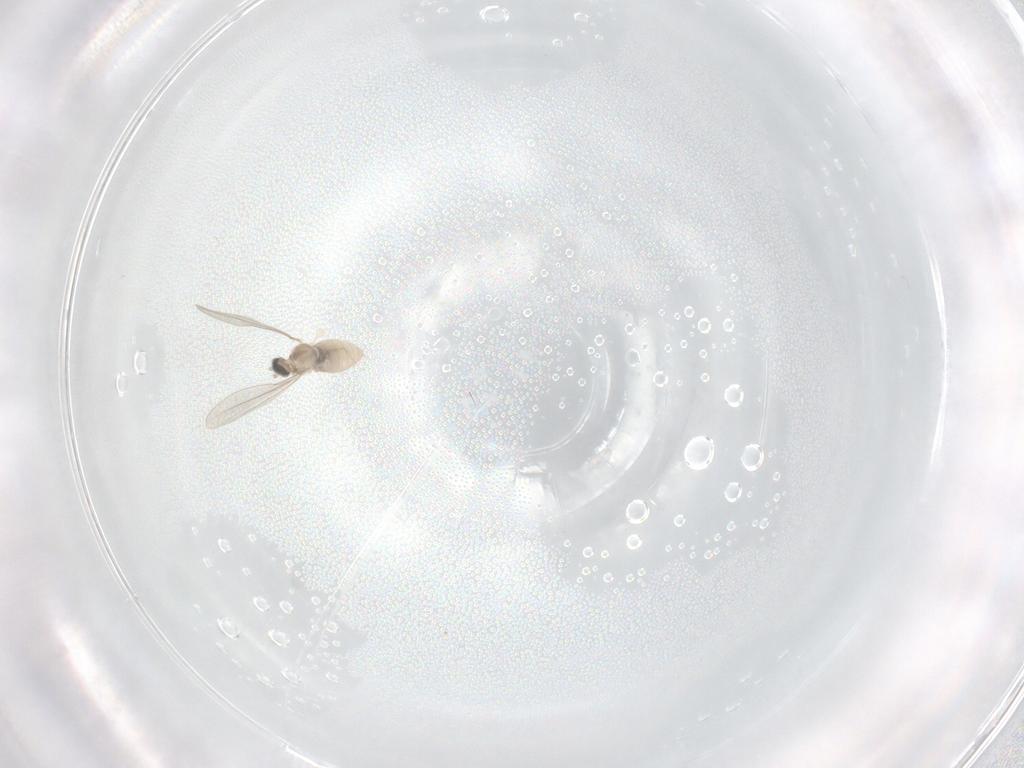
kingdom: Animalia
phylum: Arthropoda
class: Insecta
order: Diptera
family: Cecidomyiidae
